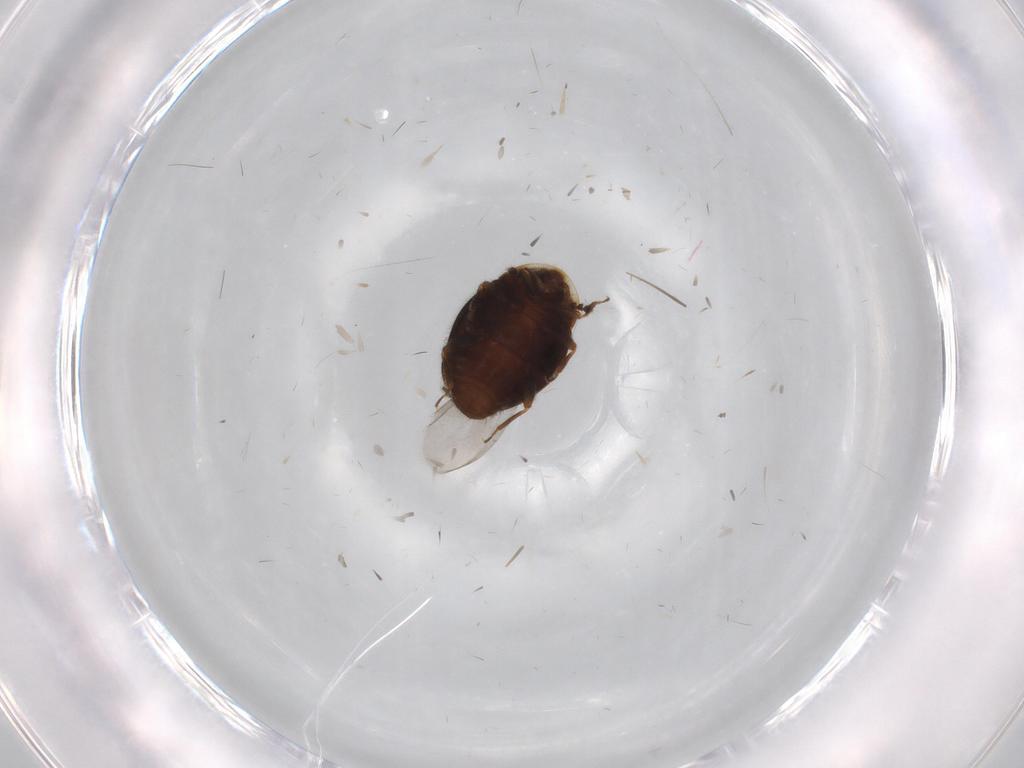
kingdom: Animalia
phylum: Arthropoda
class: Insecta
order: Coleoptera
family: Corylophidae
